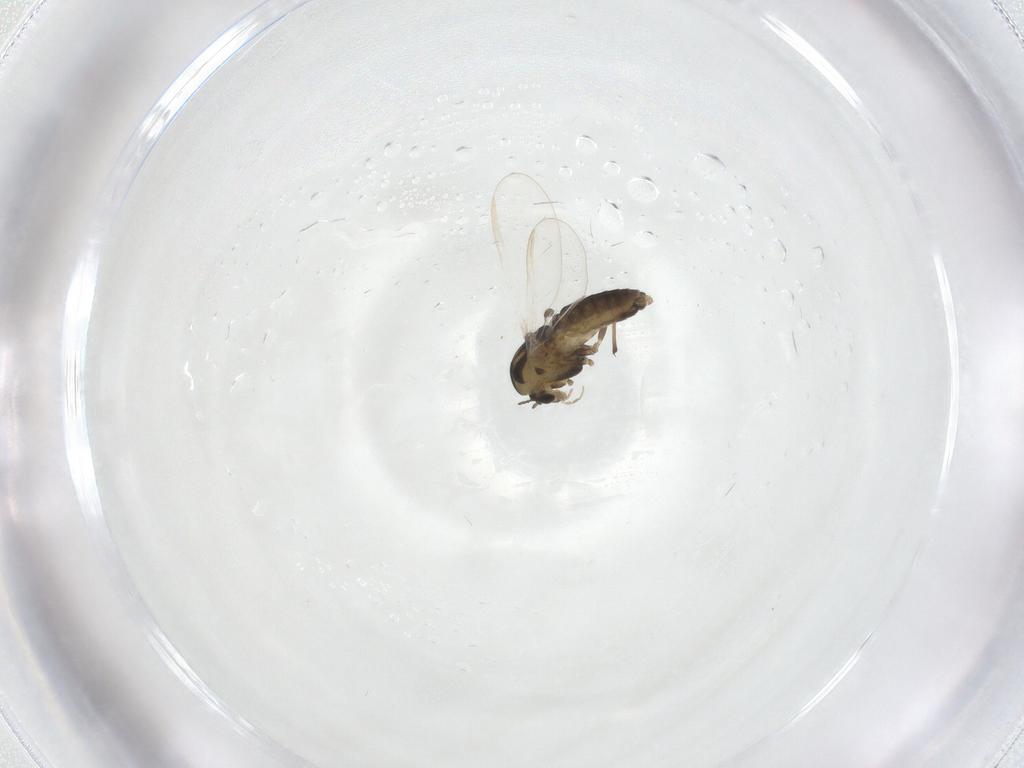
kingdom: Animalia
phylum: Arthropoda
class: Insecta
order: Diptera
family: Chironomidae
